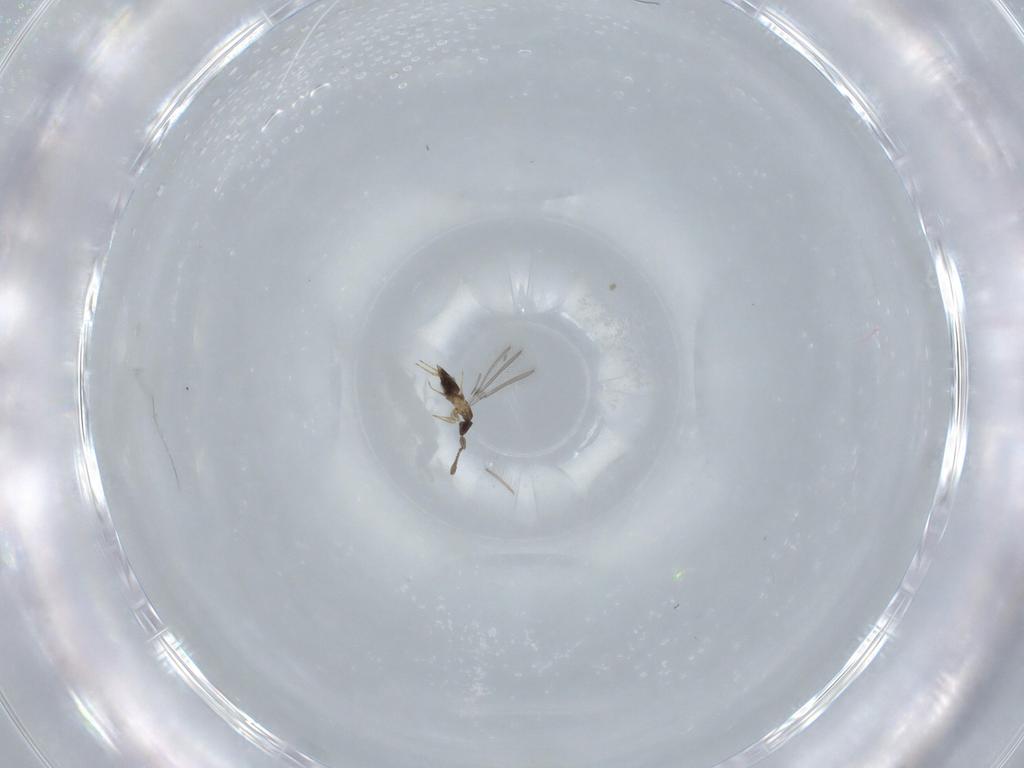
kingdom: Animalia
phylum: Arthropoda
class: Insecta
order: Hymenoptera
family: Mymaridae
